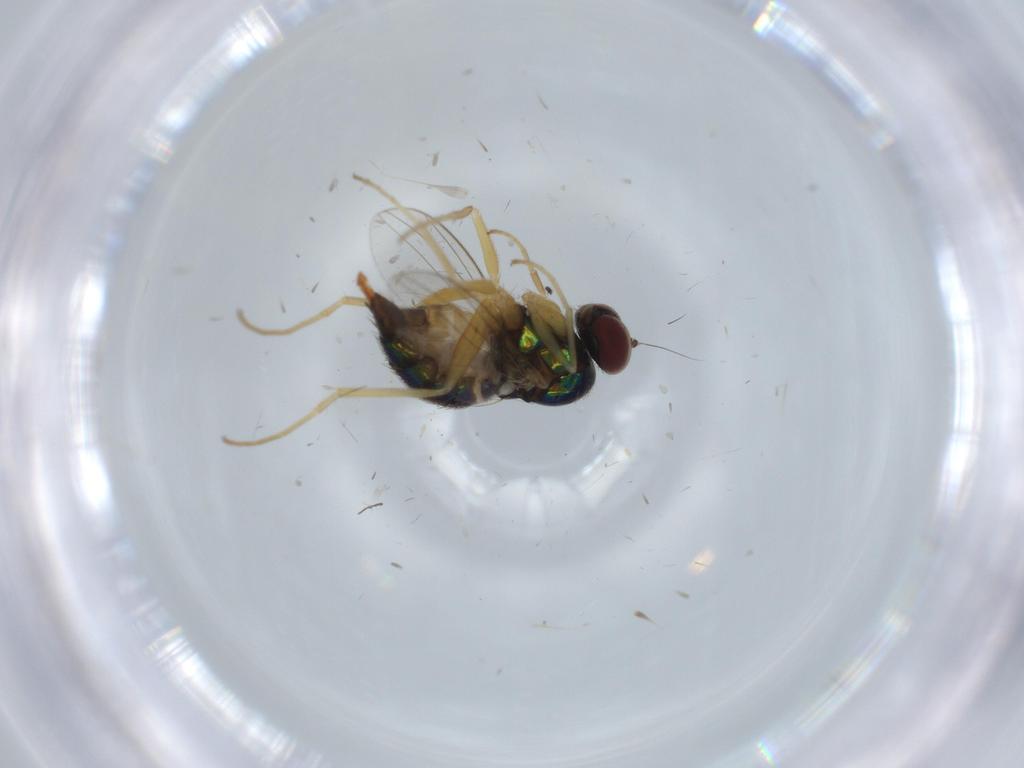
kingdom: Animalia
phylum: Arthropoda
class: Insecta
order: Diptera
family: Dolichopodidae
